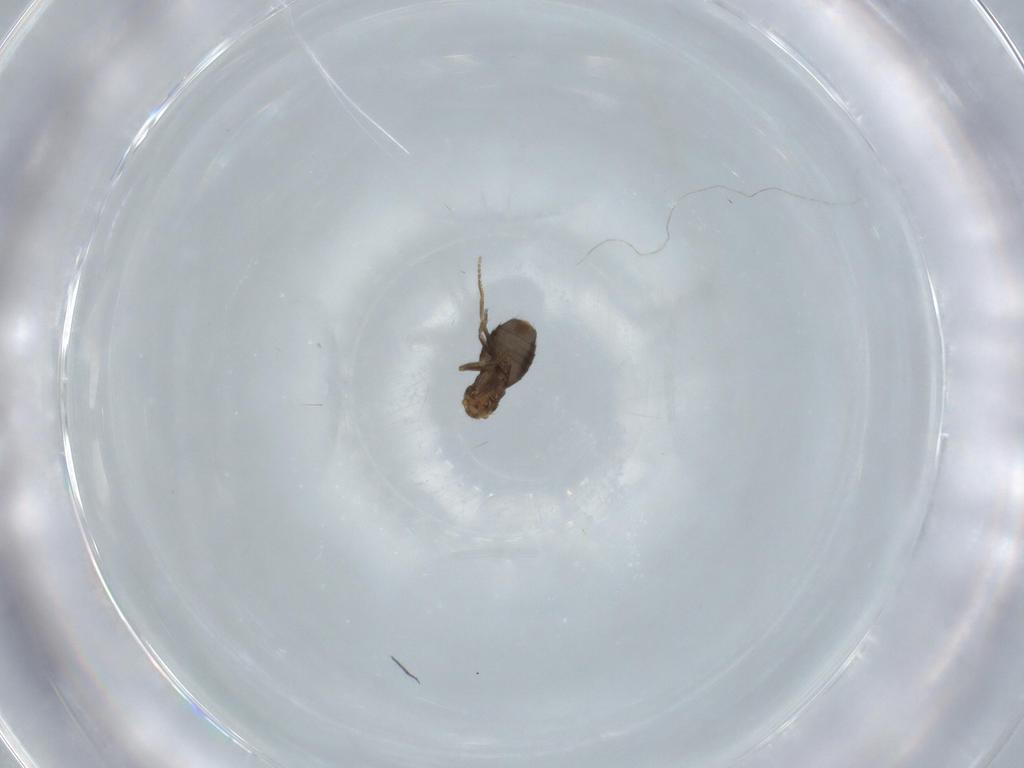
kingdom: Animalia
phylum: Arthropoda
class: Insecta
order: Diptera
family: Phoridae
